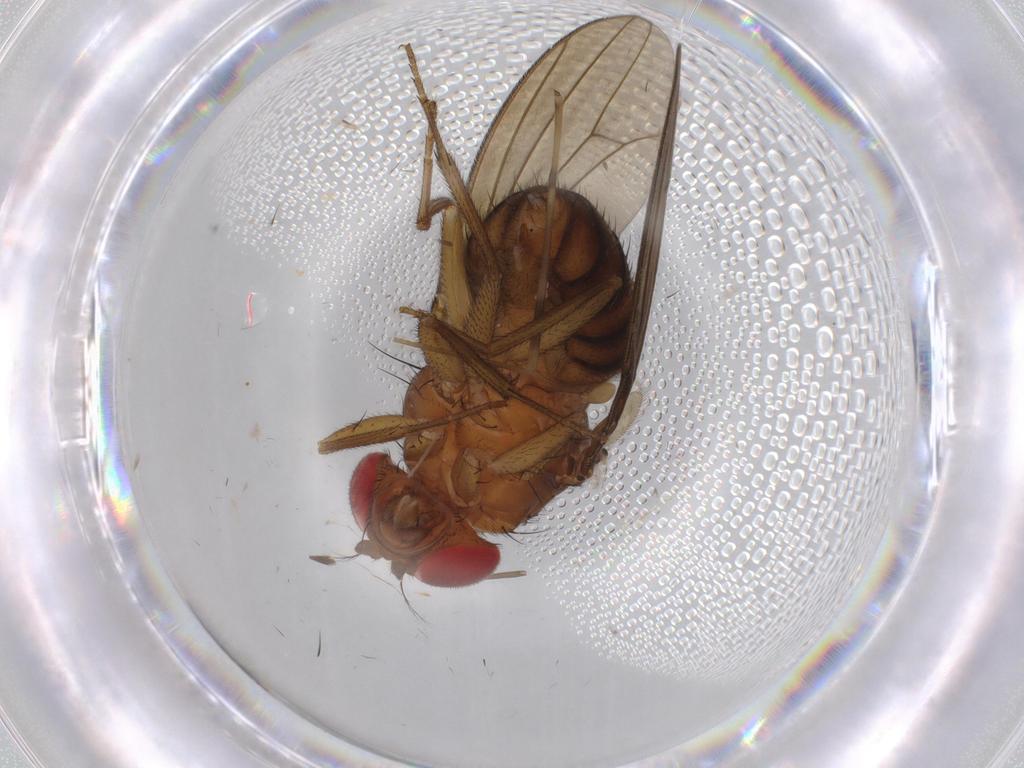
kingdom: Animalia
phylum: Arthropoda
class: Insecta
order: Diptera
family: Drosophilidae
